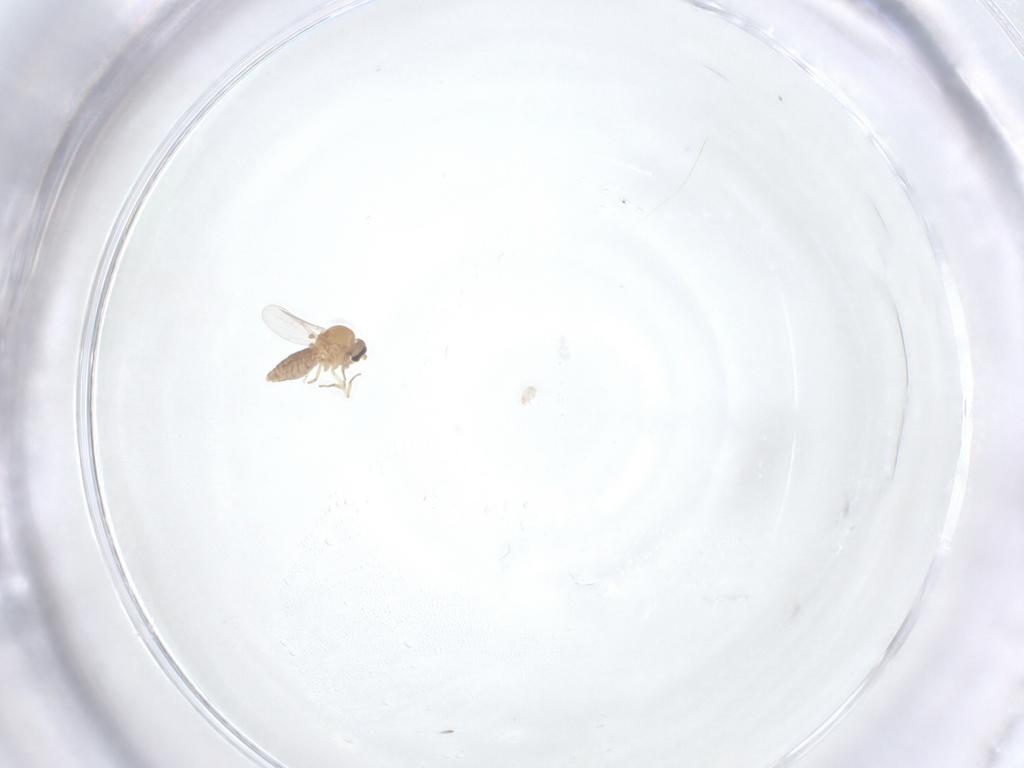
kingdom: Animalia
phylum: Arthropoda
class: Insecta
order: Diptera
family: Ceratopogonidae
